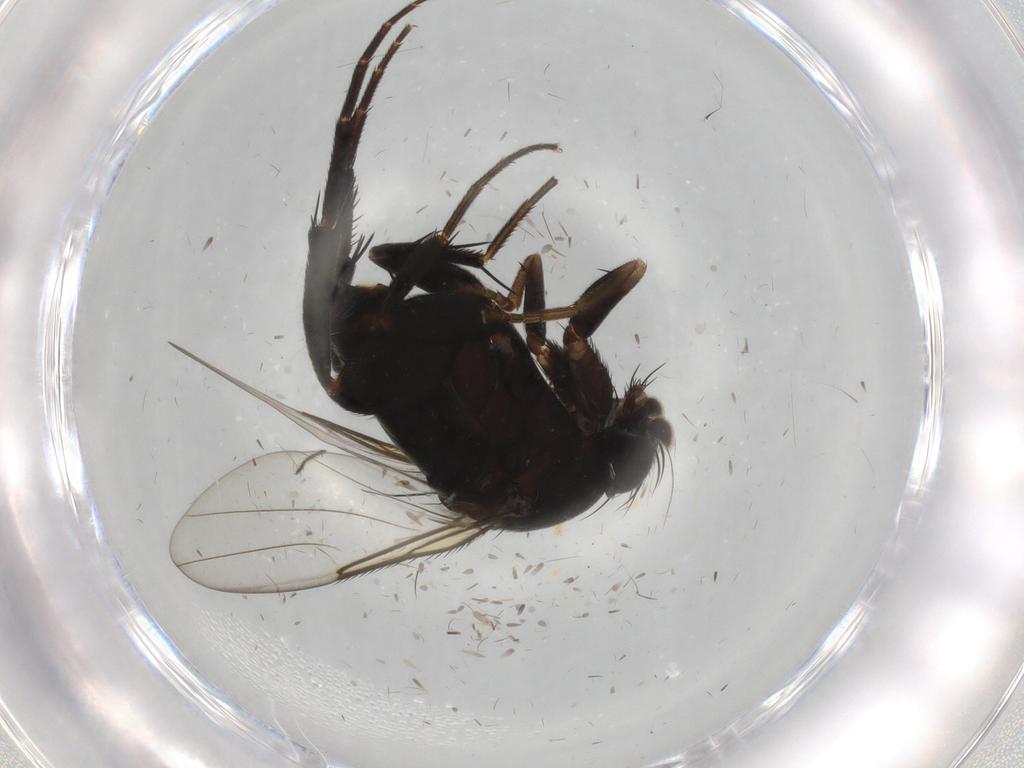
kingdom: Animalia
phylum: Arthropoda
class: Insecta
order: Diptera
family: Phoridae
